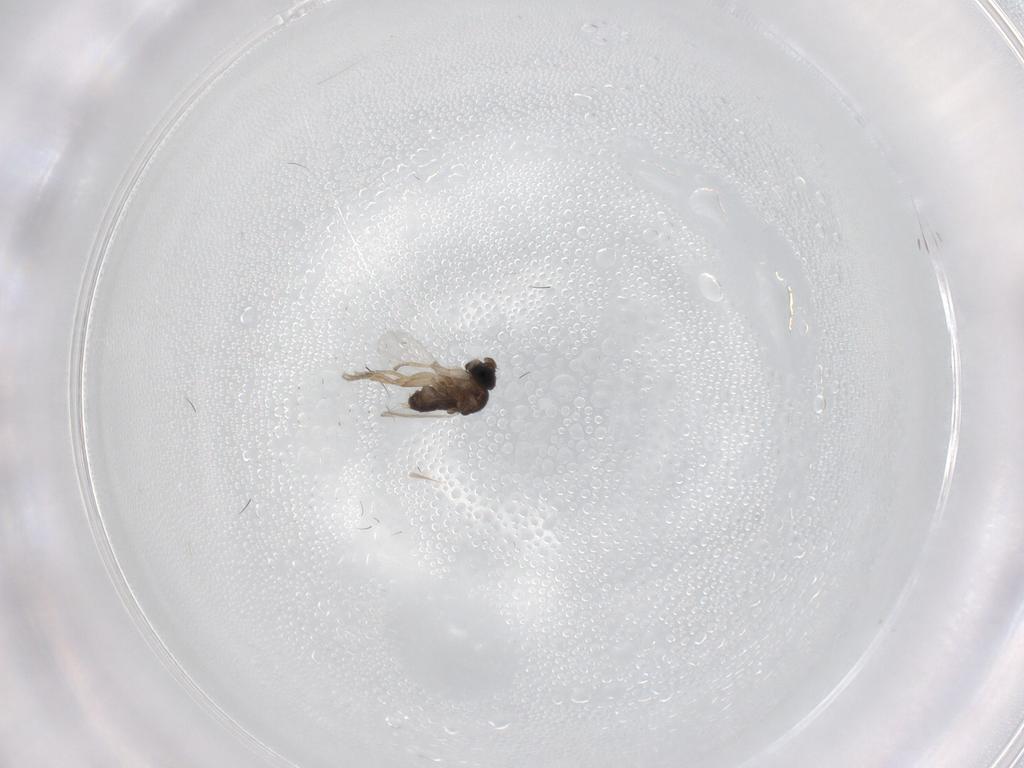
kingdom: Animalia
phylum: Arthropoda
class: Insecta
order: Diptera
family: Phoridae
